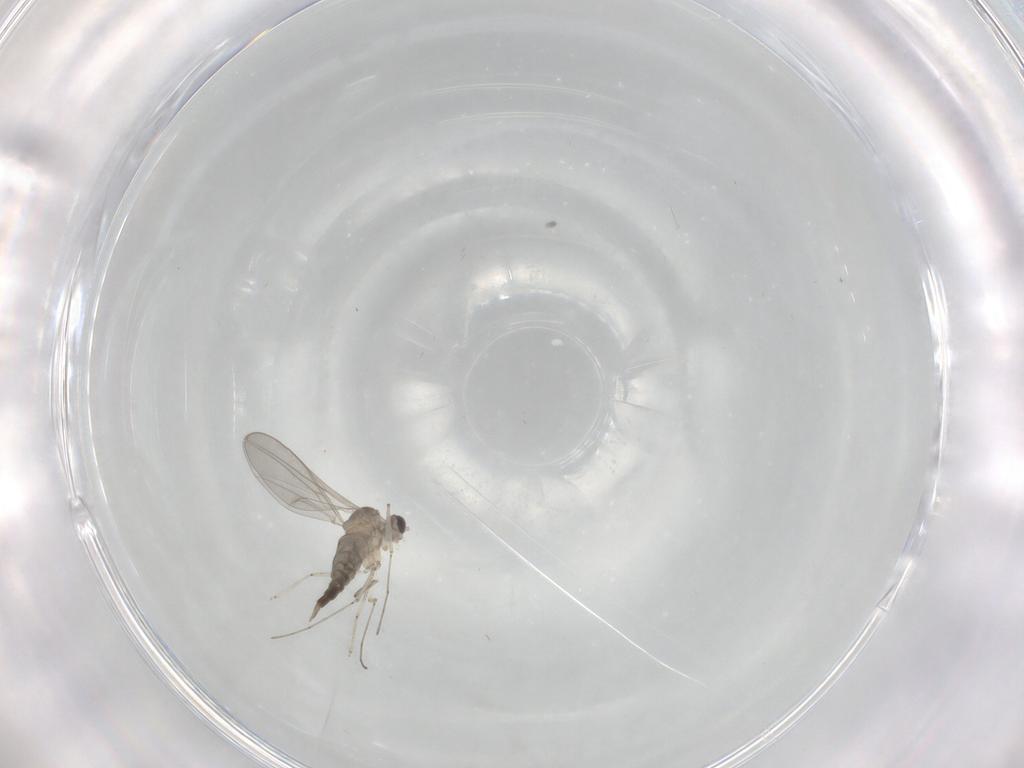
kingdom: Animalia
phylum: Arthropoda
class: Insecta
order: Diptera
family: Cecidomyiidae
